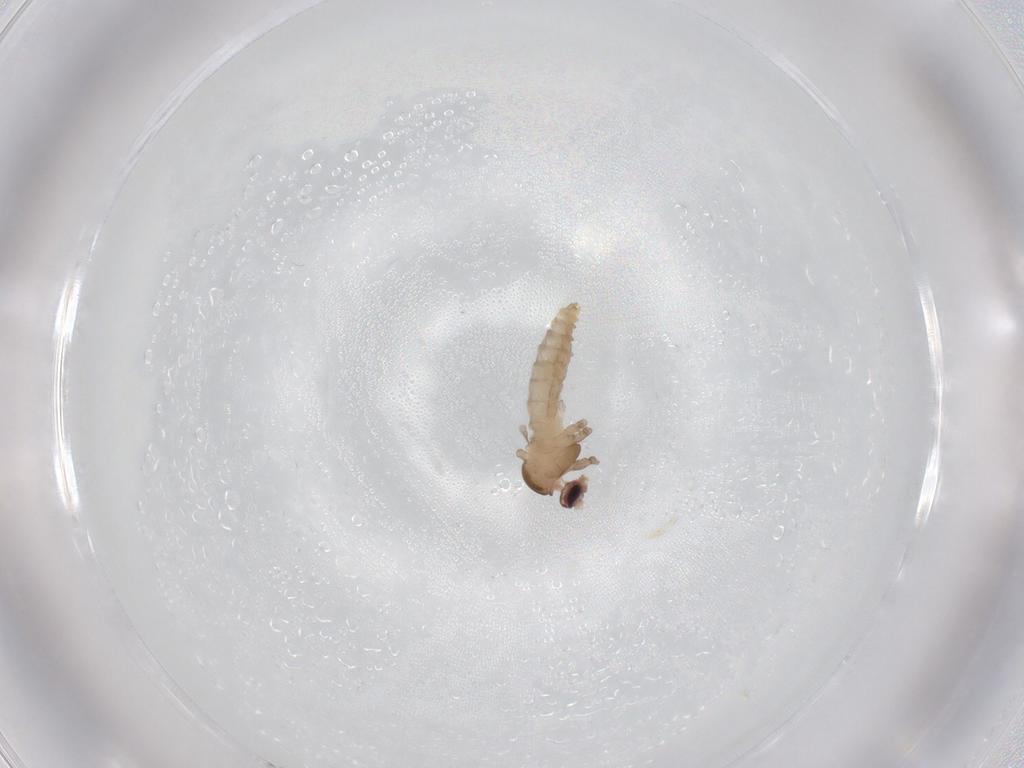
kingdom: Animalia
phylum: Arthropoda
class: Insecta
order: Diptera
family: Cecidomyiidae
